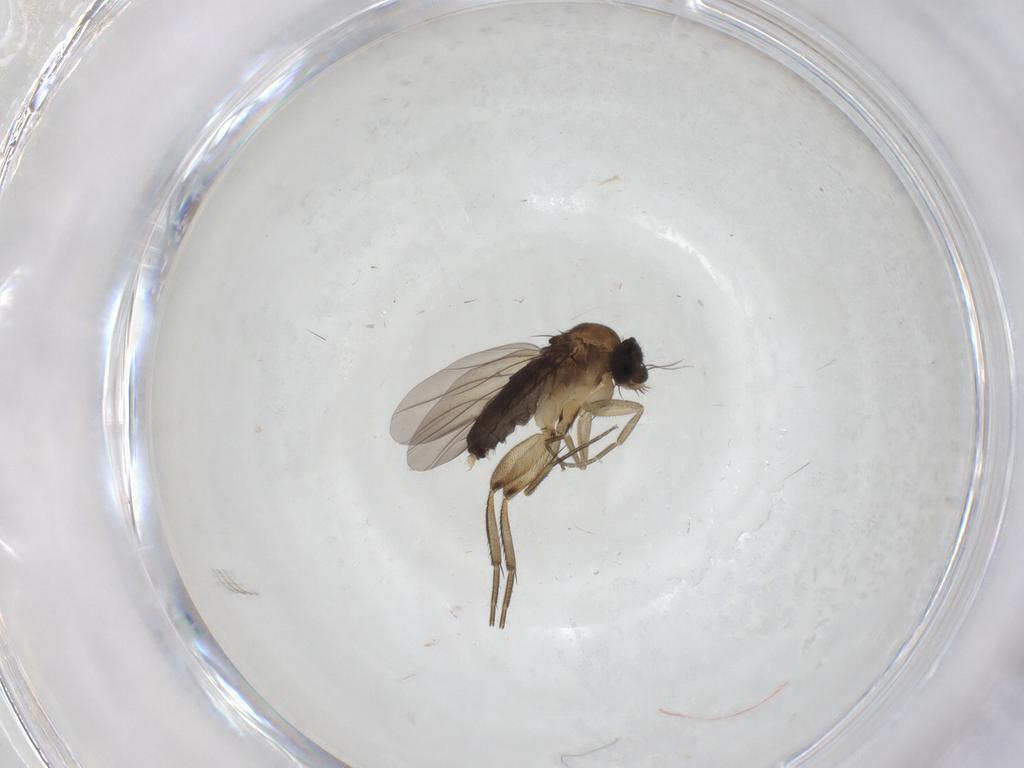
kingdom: Animalia
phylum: Arthropoda
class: Insecta
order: Diptera
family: Phoridae
